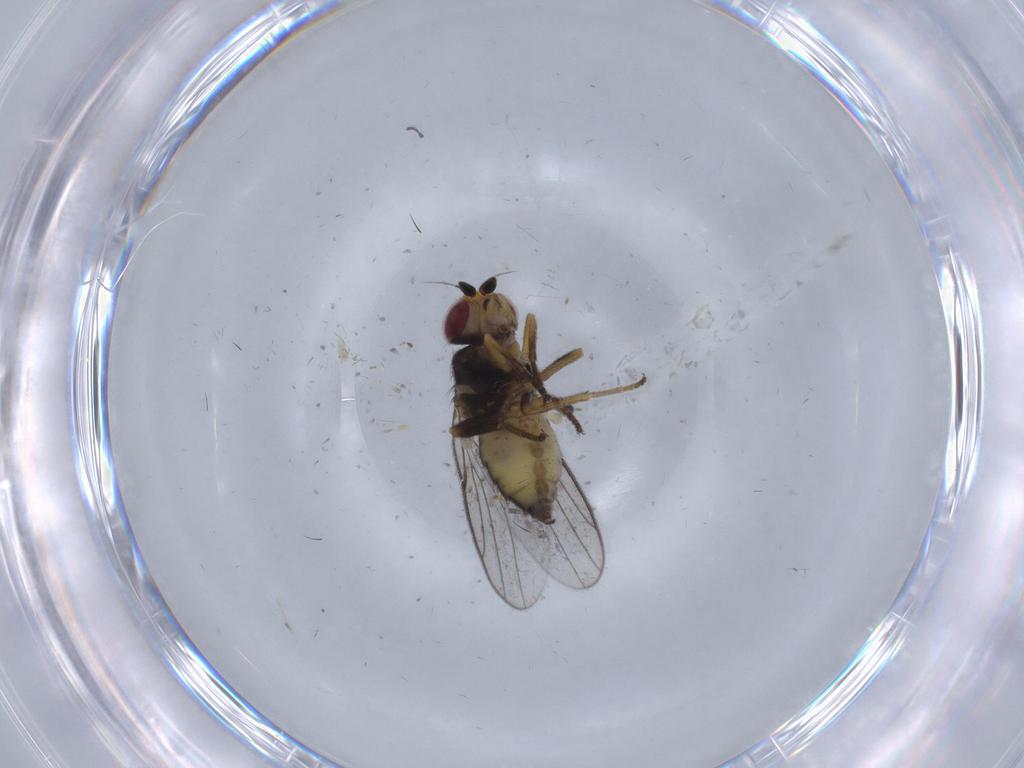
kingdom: Animalia
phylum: Arthropoda
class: Insecta
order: Diptera
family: Chloropidae
